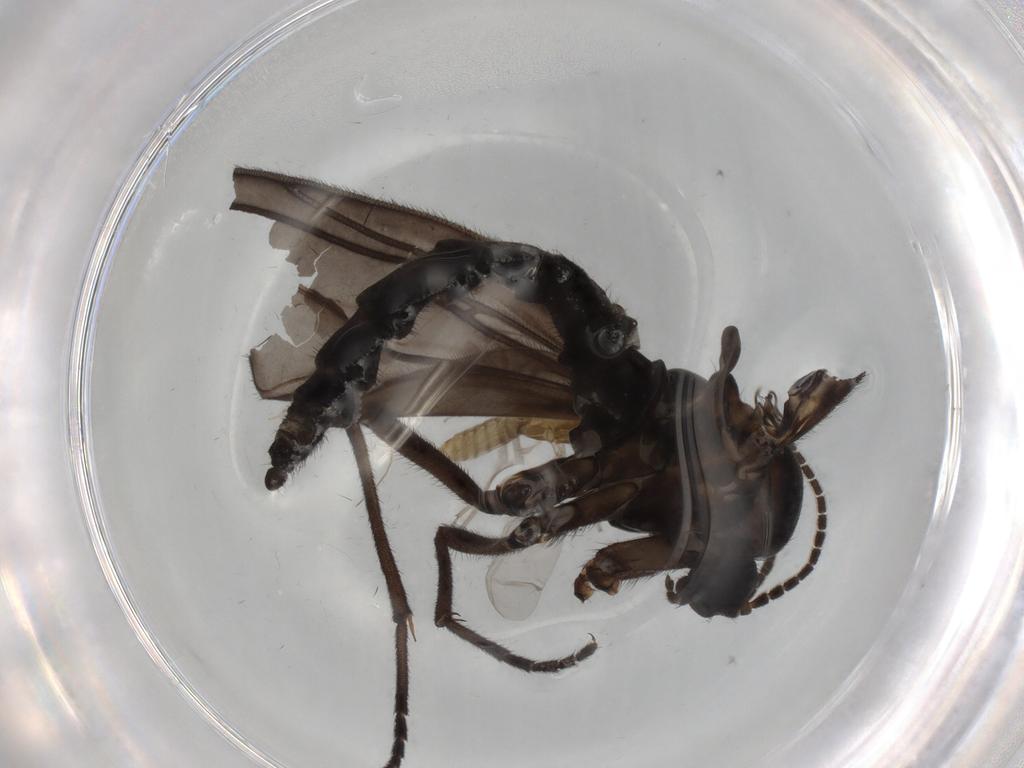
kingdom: Animalia
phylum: Arthropoda
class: Insecta
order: Diptera
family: Sciaridae
